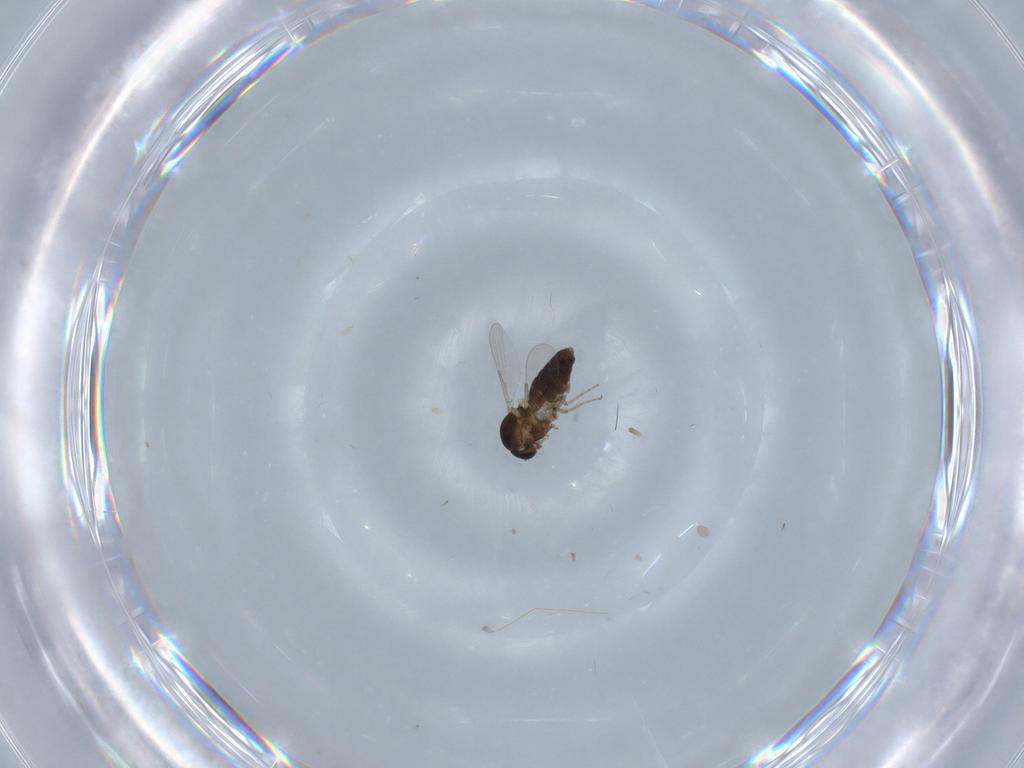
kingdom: Animalia
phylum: Arthropoda
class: Insecta
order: Diptera
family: Ceratopogonidae
